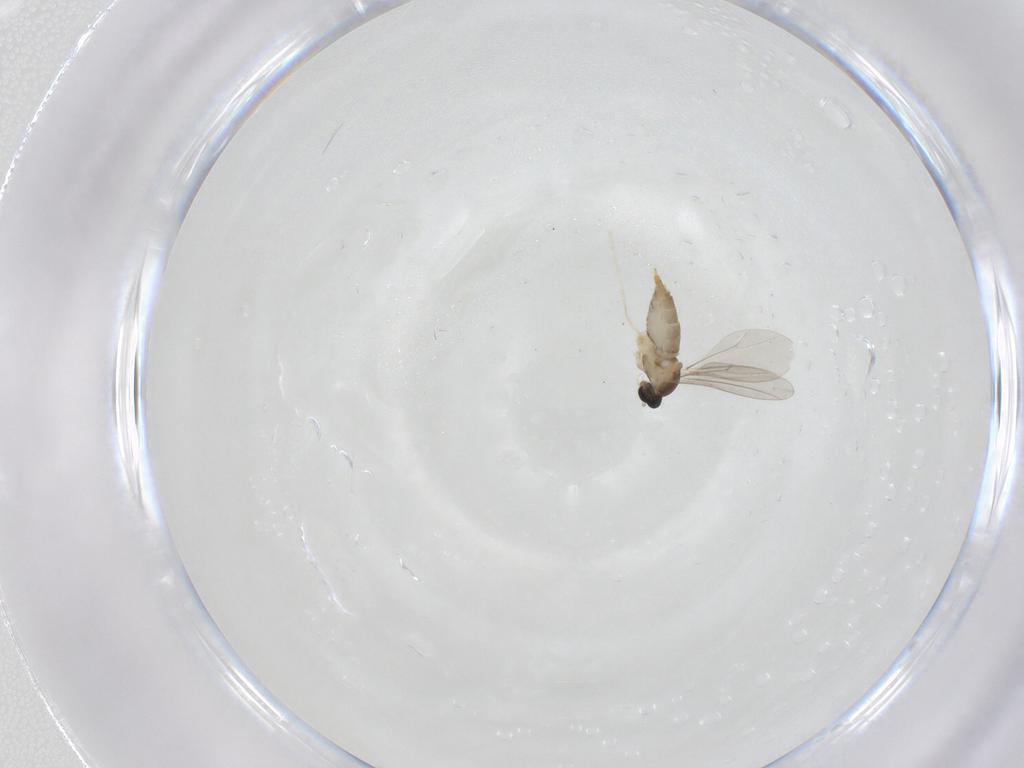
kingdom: Animalia
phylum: Arthropoda
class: Insecta
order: Diptera
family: Cecidomyiidae
